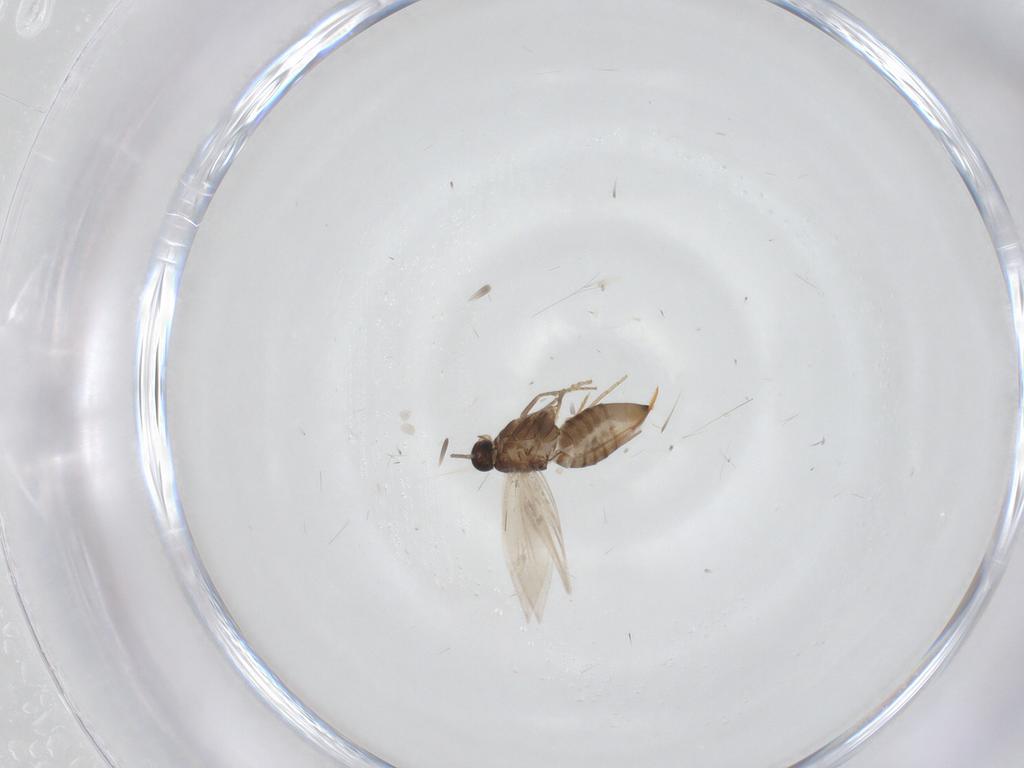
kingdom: Animalia
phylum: Arthropoda
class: Insecta
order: Lepidoptera
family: Heliozelidae
